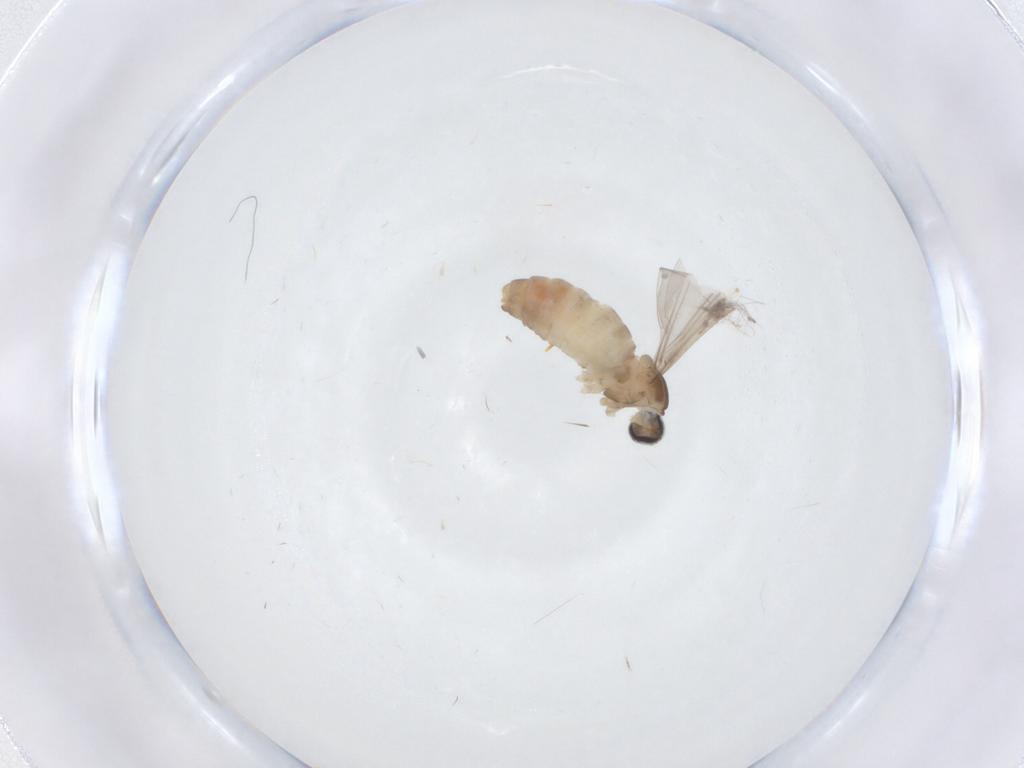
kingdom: Animalia
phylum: Arthropoda
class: Insecta
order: Diptera
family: Cecidomyiidae
